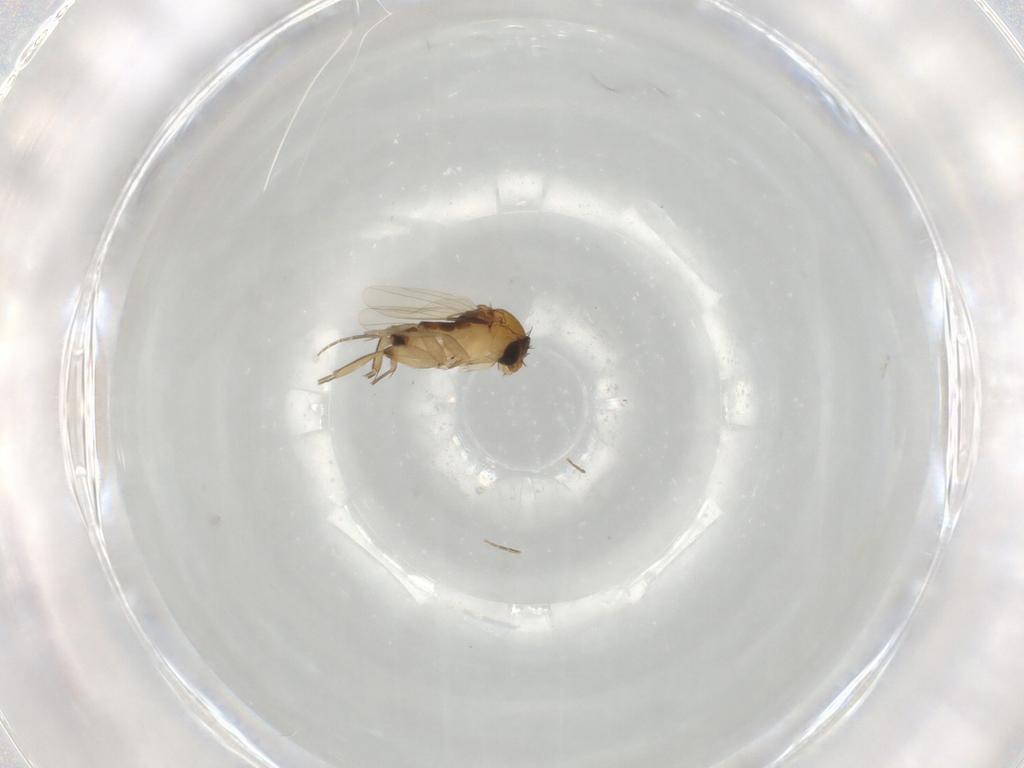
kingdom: Animalia
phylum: Arthropoda
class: Insecta
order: Diptera
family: Phoridae
